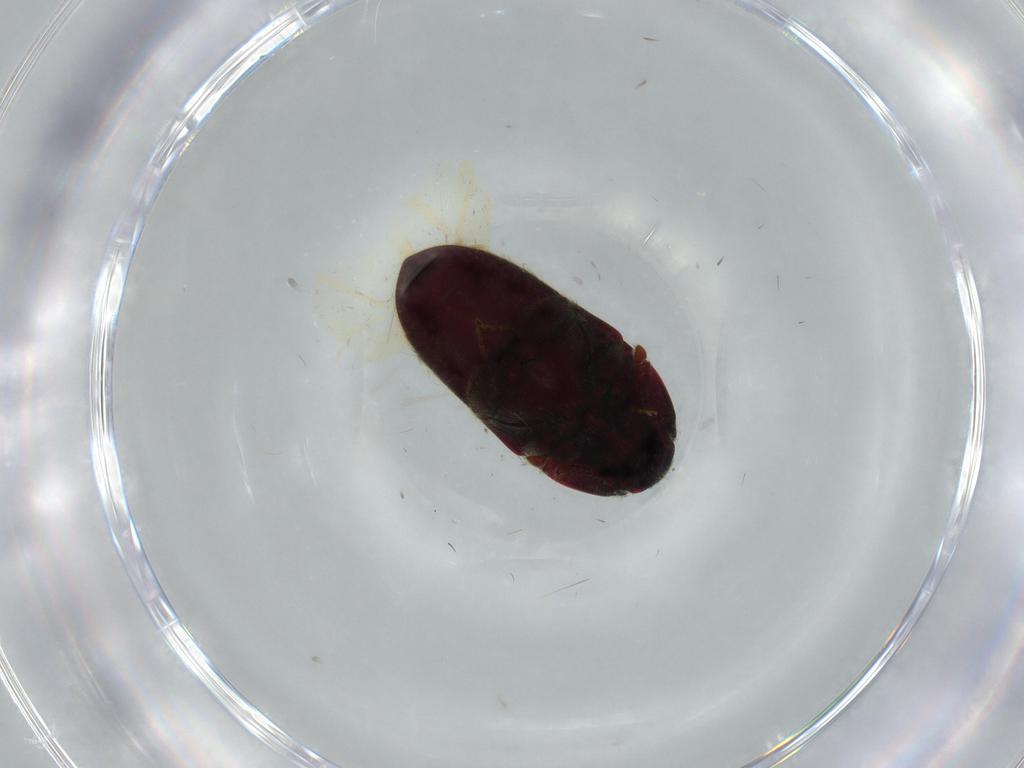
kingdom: Animalia
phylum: Arthropoda
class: Insecta
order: Coleoptera
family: Throscidae
